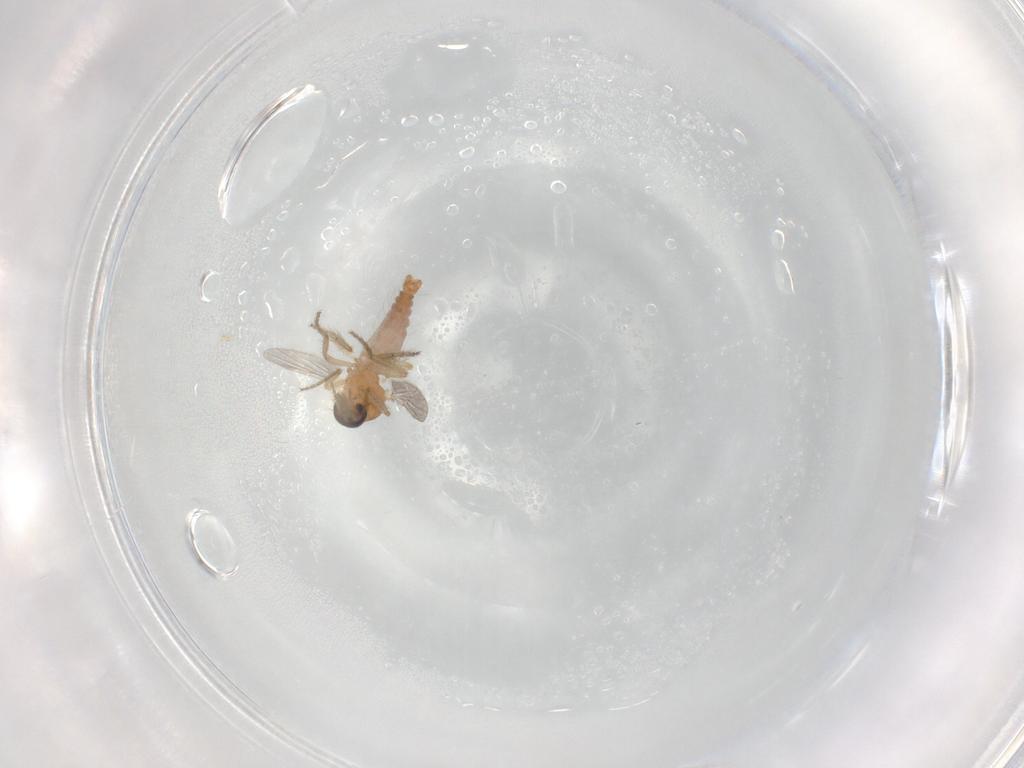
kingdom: Animalia
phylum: Arthropoda
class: Insecta
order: Diptera
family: Ceratopogonidae
